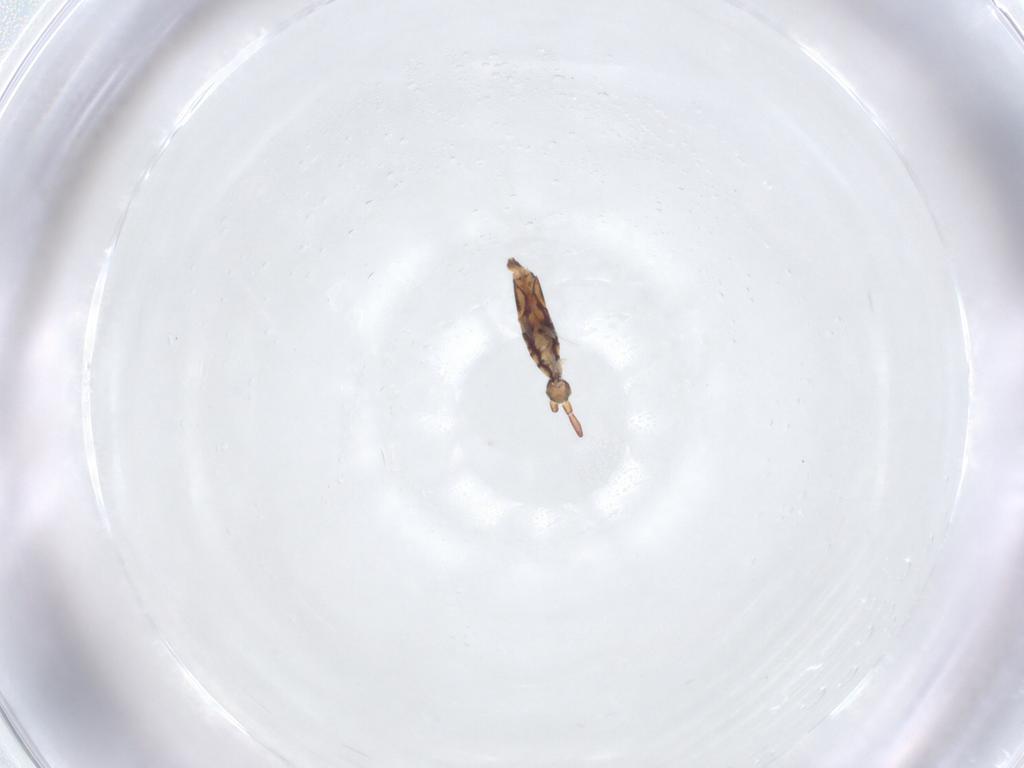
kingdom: Animalia
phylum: Arthropoda
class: Collembola
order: Entomobryomorpha
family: Entomobryidae
